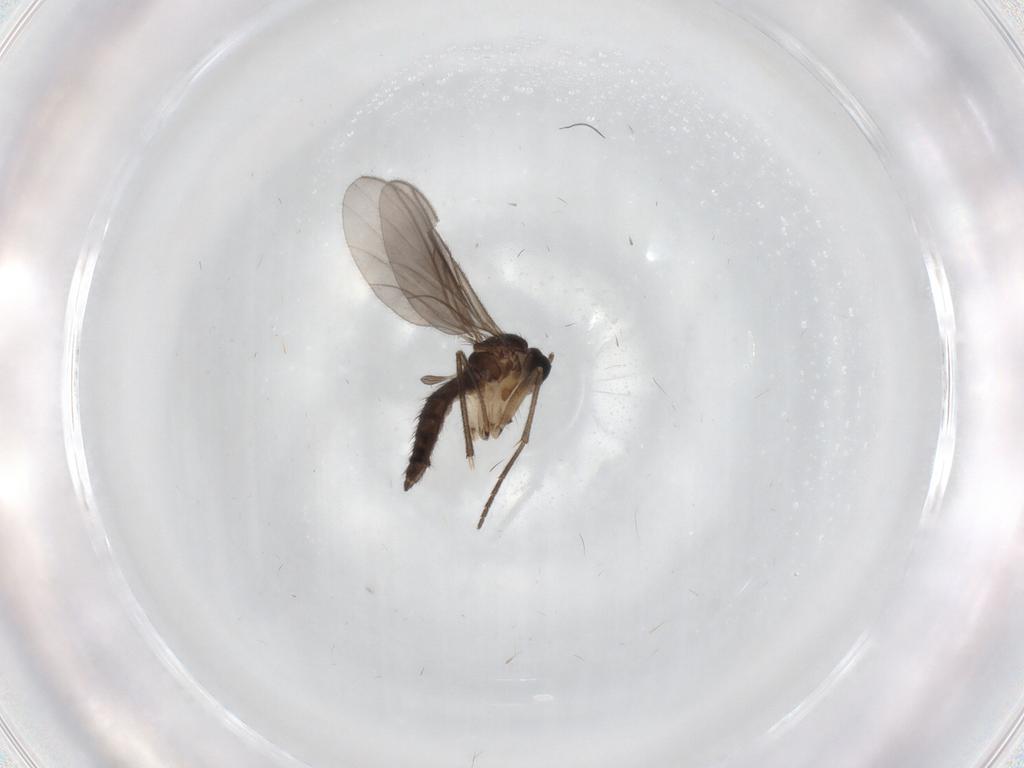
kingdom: Animalia
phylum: Arthropoda
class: Insecta
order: Diptera
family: Sciaridae
